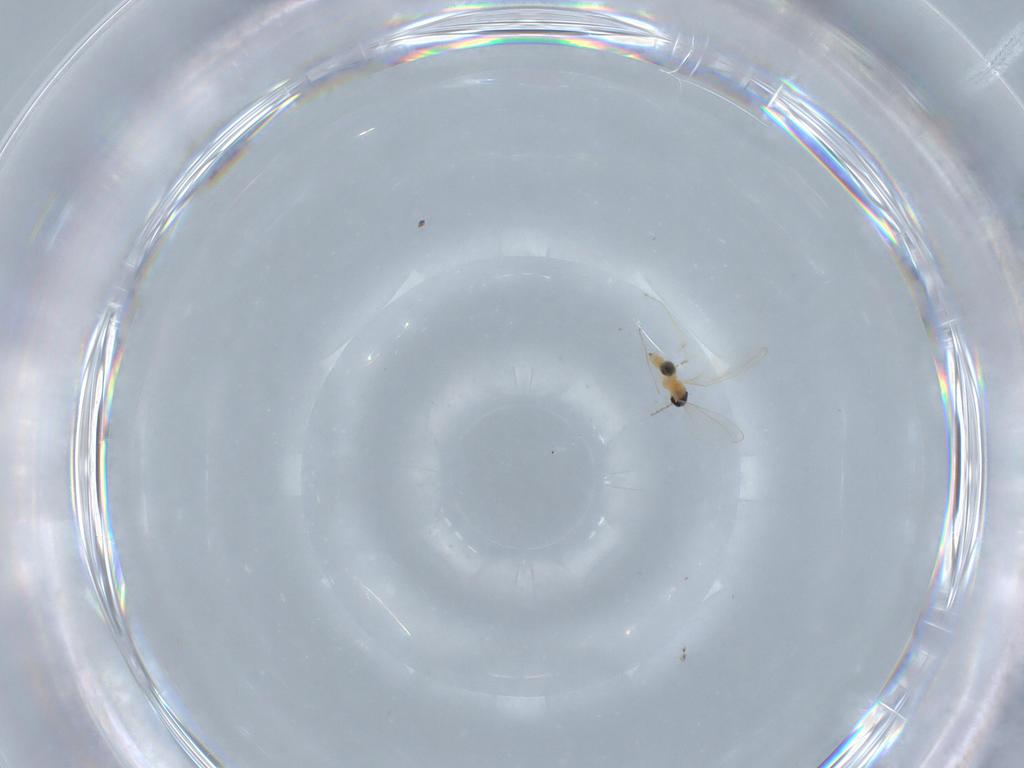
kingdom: Animalia
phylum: Arthropoda
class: Insecta
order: Diptera
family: Cecidomyiidae
